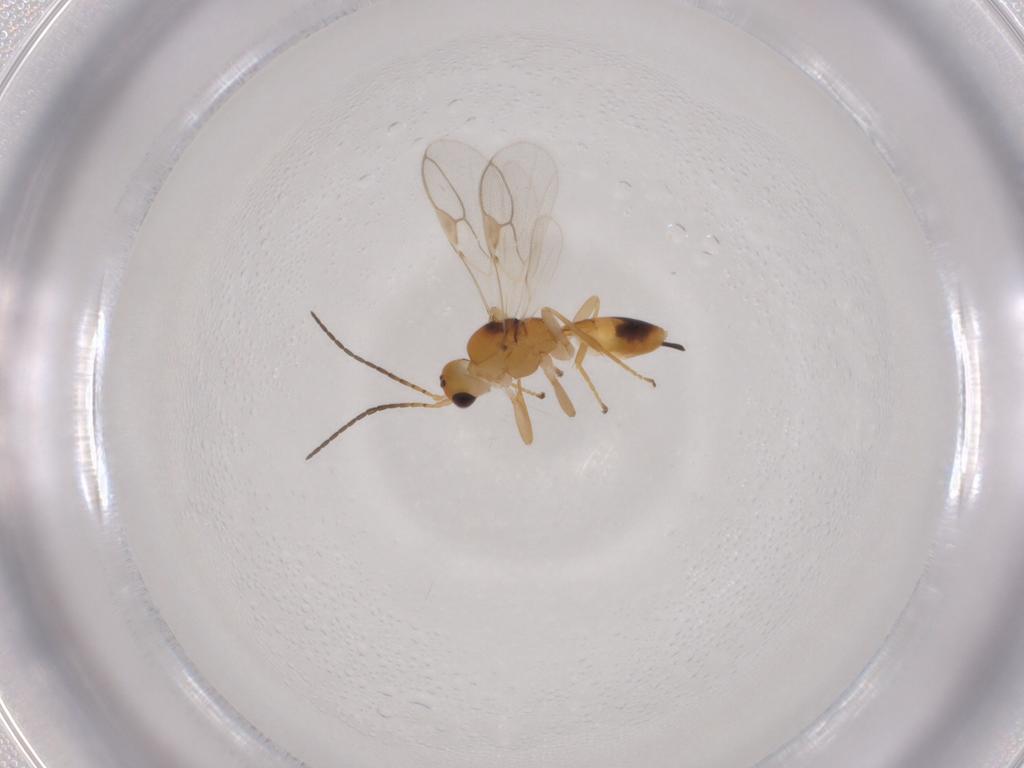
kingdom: Animalia
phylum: Arthropoda
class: Insecta
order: Hymenoptera
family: Braconidae
